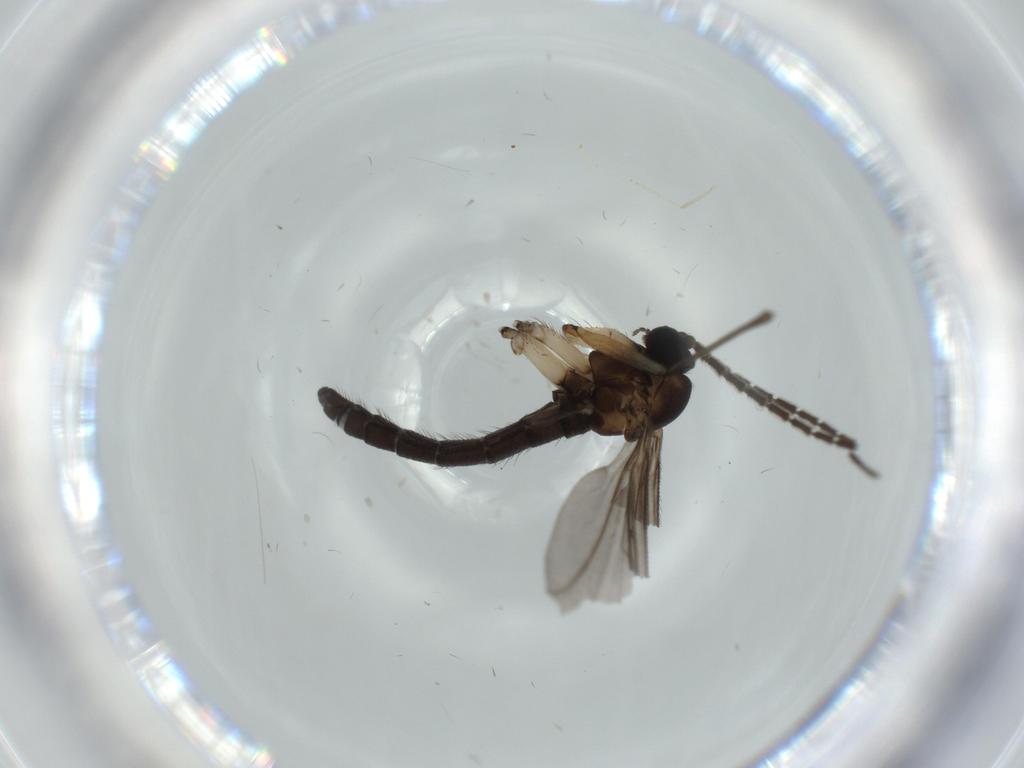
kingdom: Animalia
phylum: Arthropoda
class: Insecta
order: Diptera
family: Sciaridae
